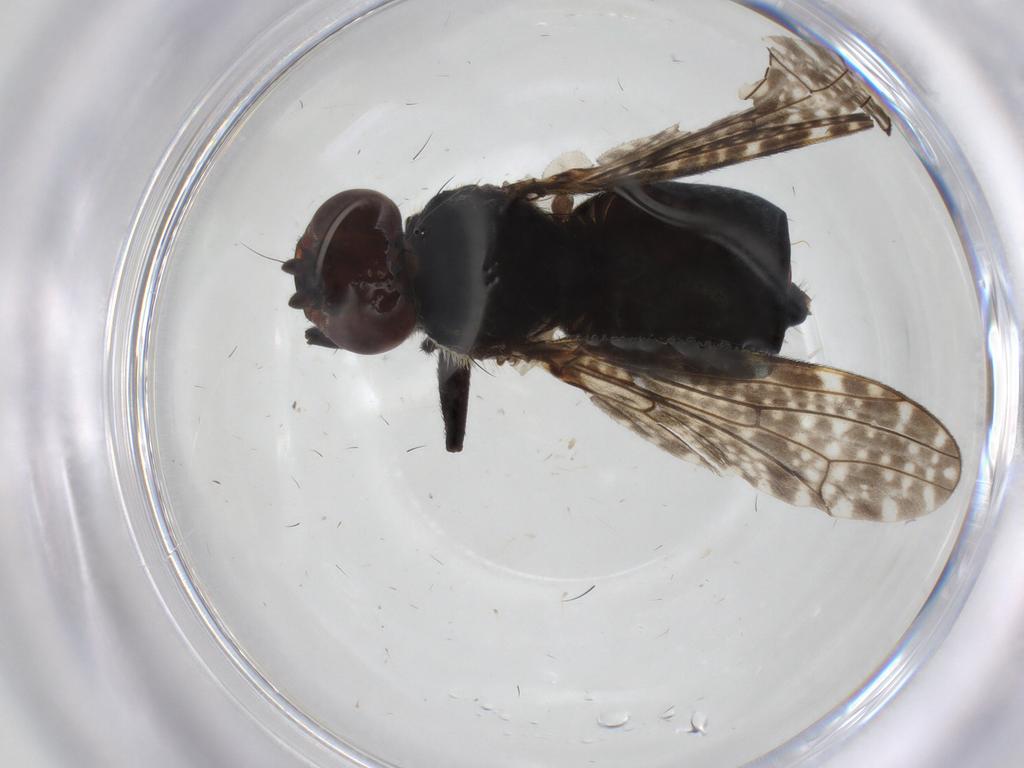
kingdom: Animalia
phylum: Arthropoda
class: Insecta
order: Diptera
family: Platystomatidae
